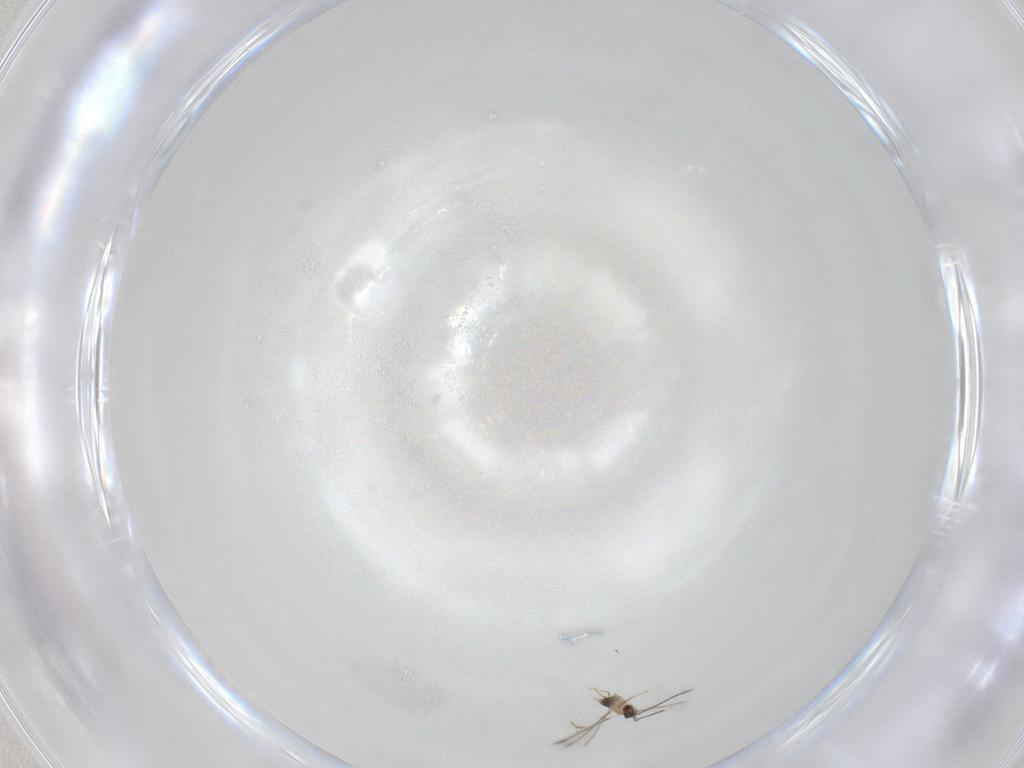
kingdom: Animalia
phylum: Arthropoda
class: Insecta
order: Hymenoptera
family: Mymaridae
